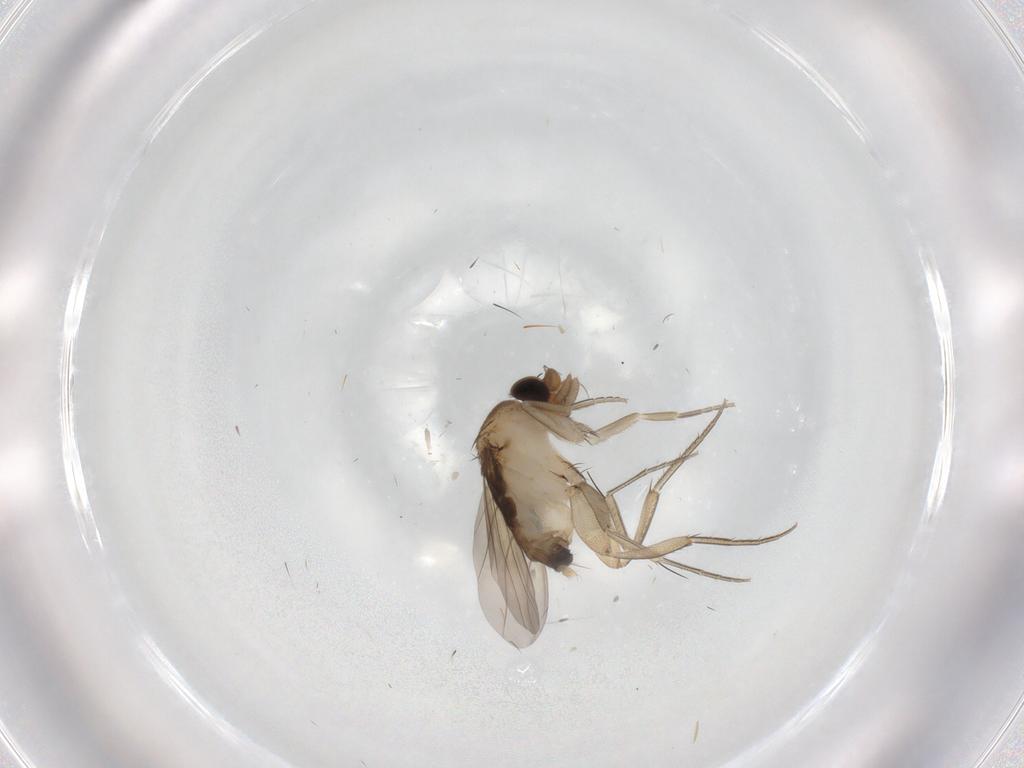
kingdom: Animalia
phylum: Arthropoda
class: Insecta
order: Diptera
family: Phoridae
